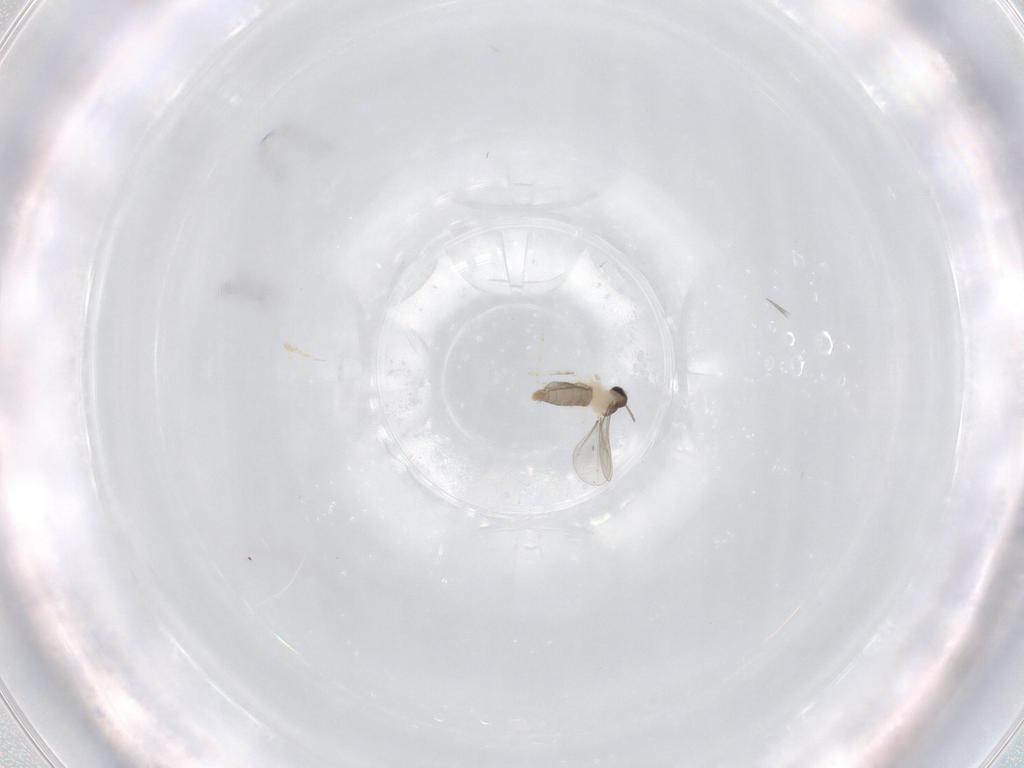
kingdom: Animalia
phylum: Arthropoda
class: Insecta
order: Diptera
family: Cecidomyiidae
